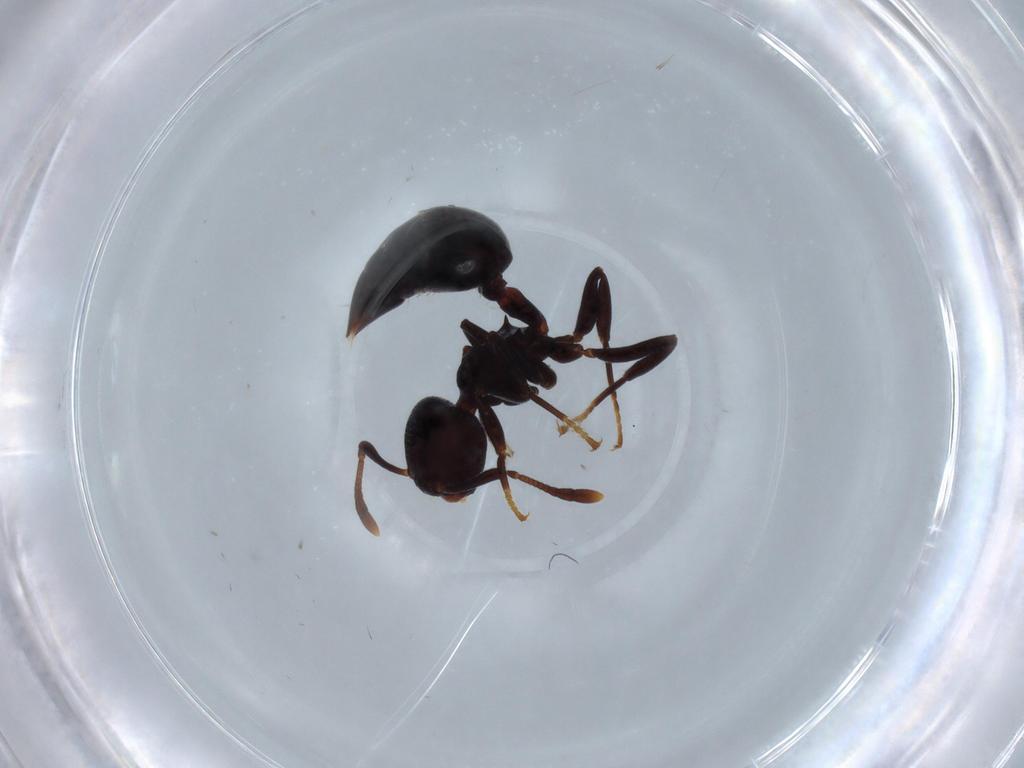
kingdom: Animalia
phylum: Arthropoda
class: Insecta
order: Hymenoptera
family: Formicidae
